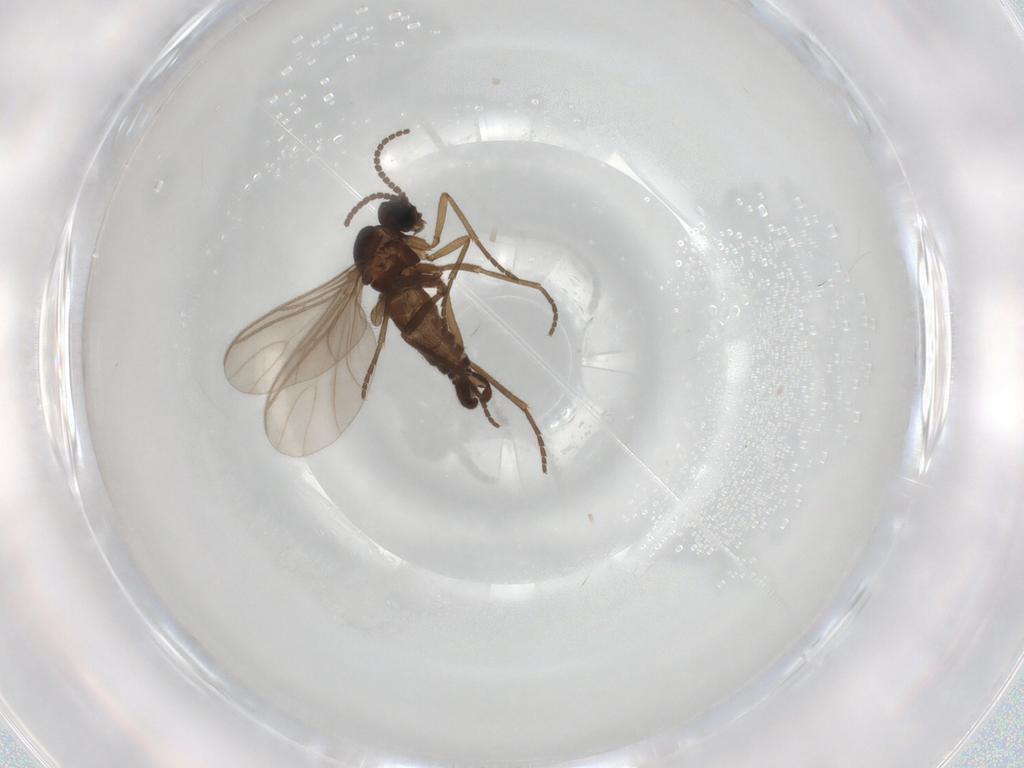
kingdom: Animalia
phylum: Arthropoda
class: Insecta
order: Diptera
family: Sciaridae
